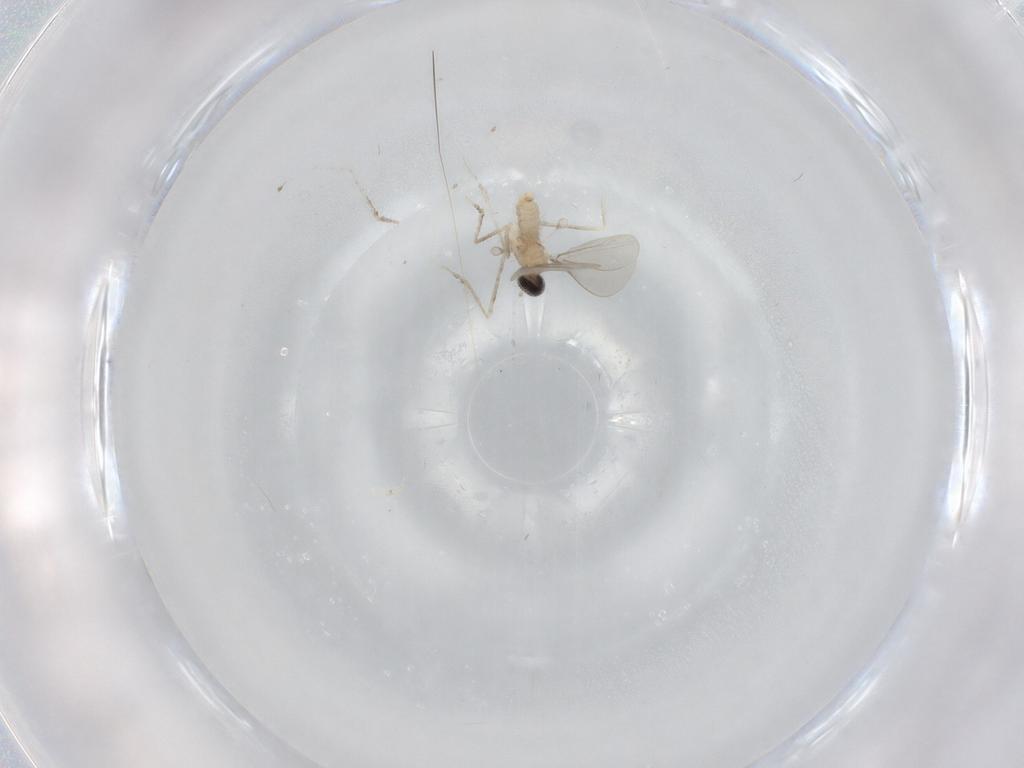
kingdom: Animalia
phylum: Arthropoda
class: Insecta
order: Diptera
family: Cecidomyiidae
